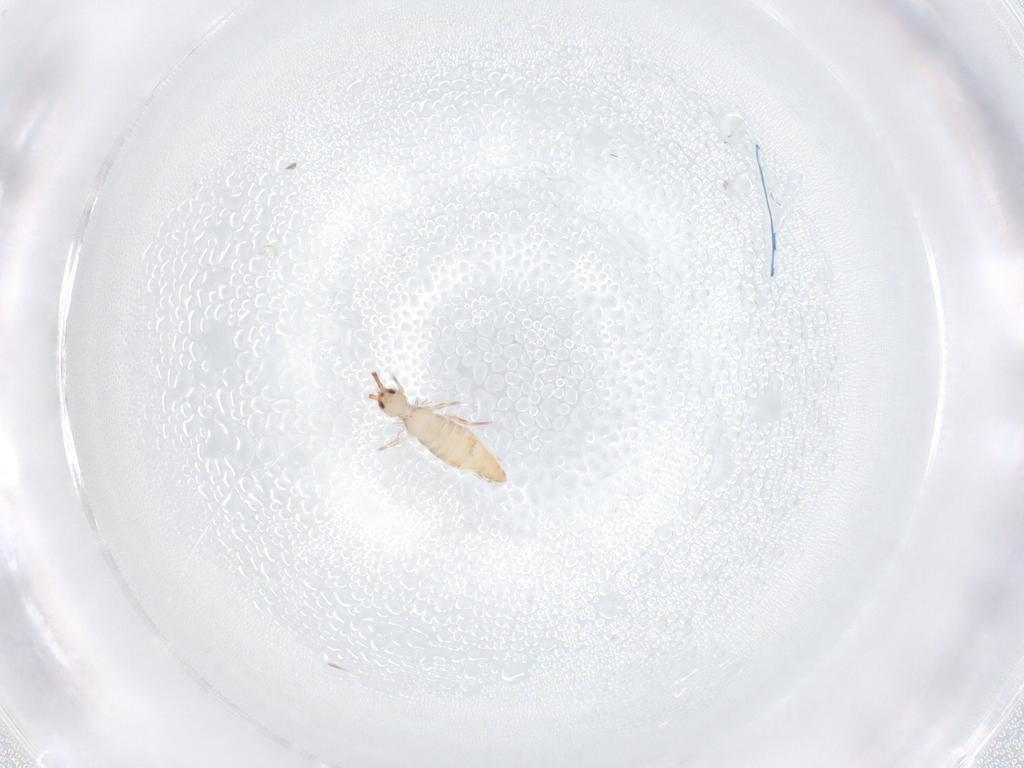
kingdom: Animalia
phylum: Arthropoda
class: Collembola
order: Entomobryomorpha
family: Entomobryidae
